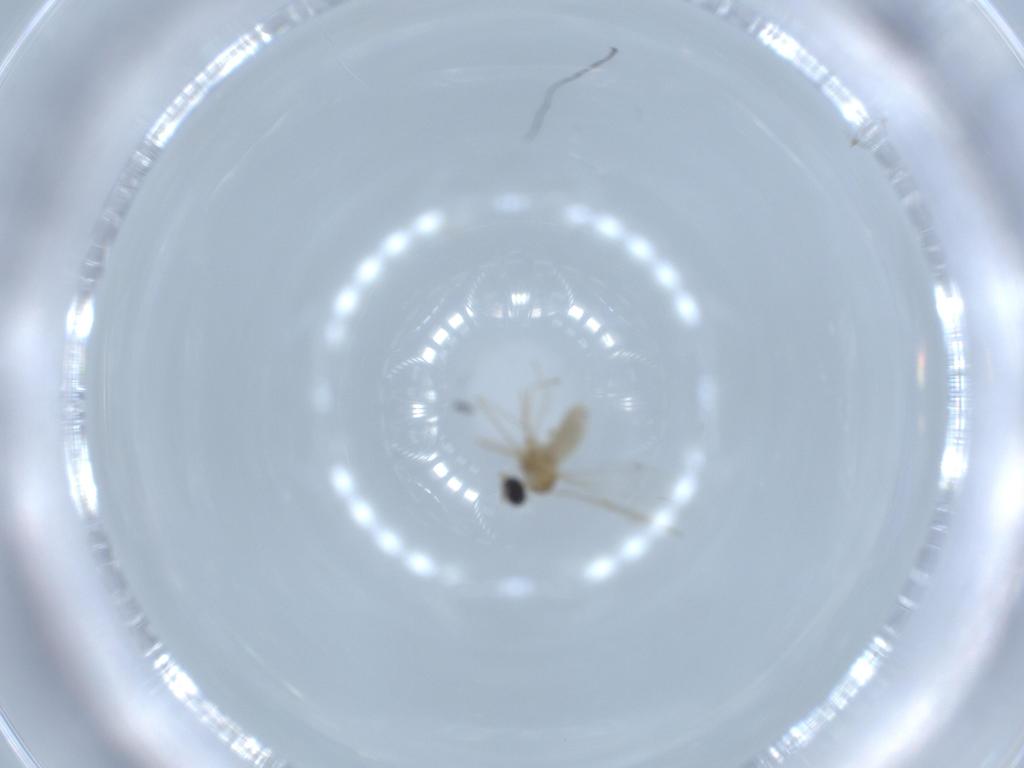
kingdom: Animalia
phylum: Arthropoda
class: Insecta
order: Diptera
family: Cecidomyiidae
